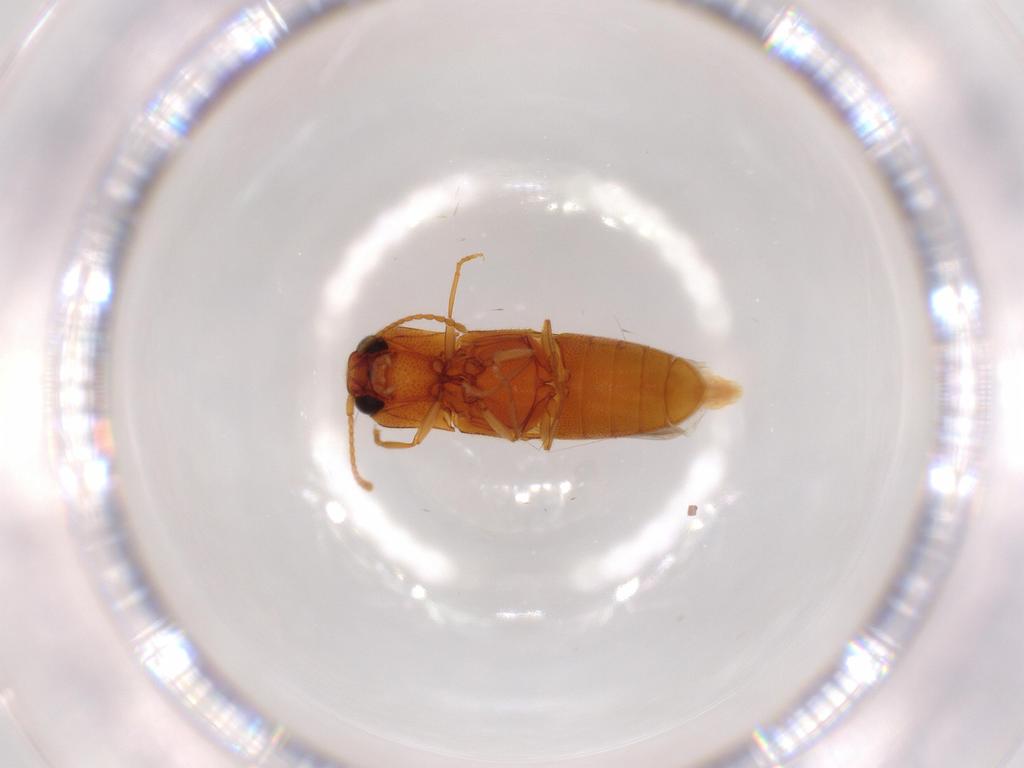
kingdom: Animalia
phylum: Arthropoda
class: Insecta
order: Coleoptera
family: Elateridae
